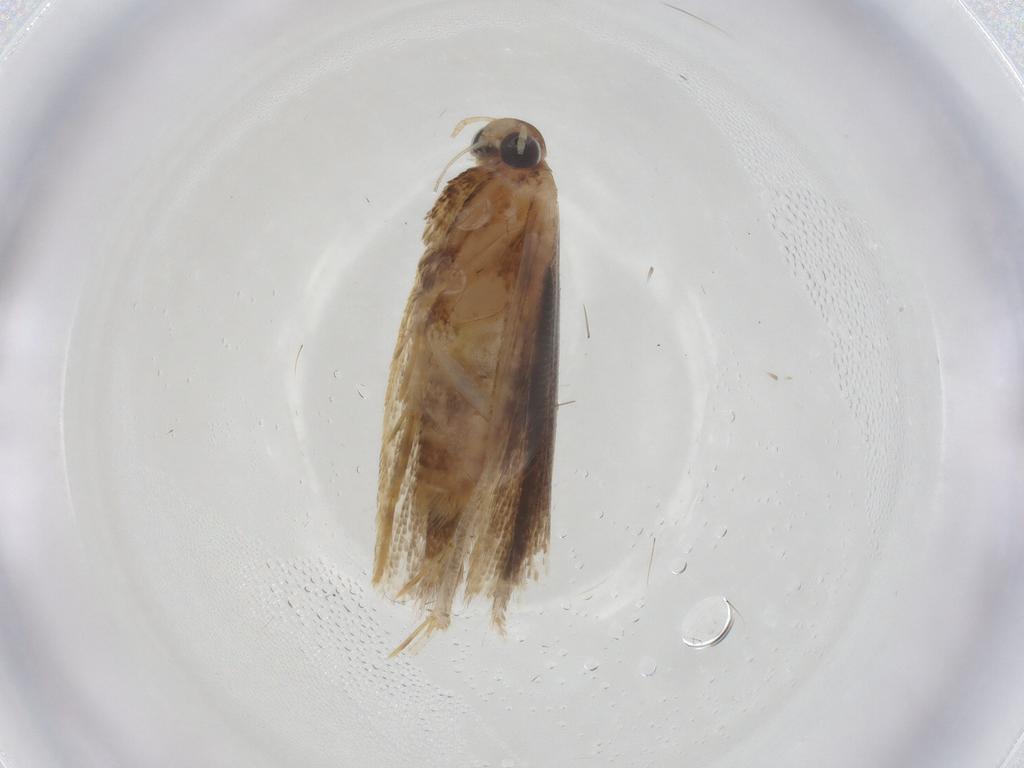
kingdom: Animalia
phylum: Arthropoda
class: Insecta
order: Lepidoptera
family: Gelechiidae
